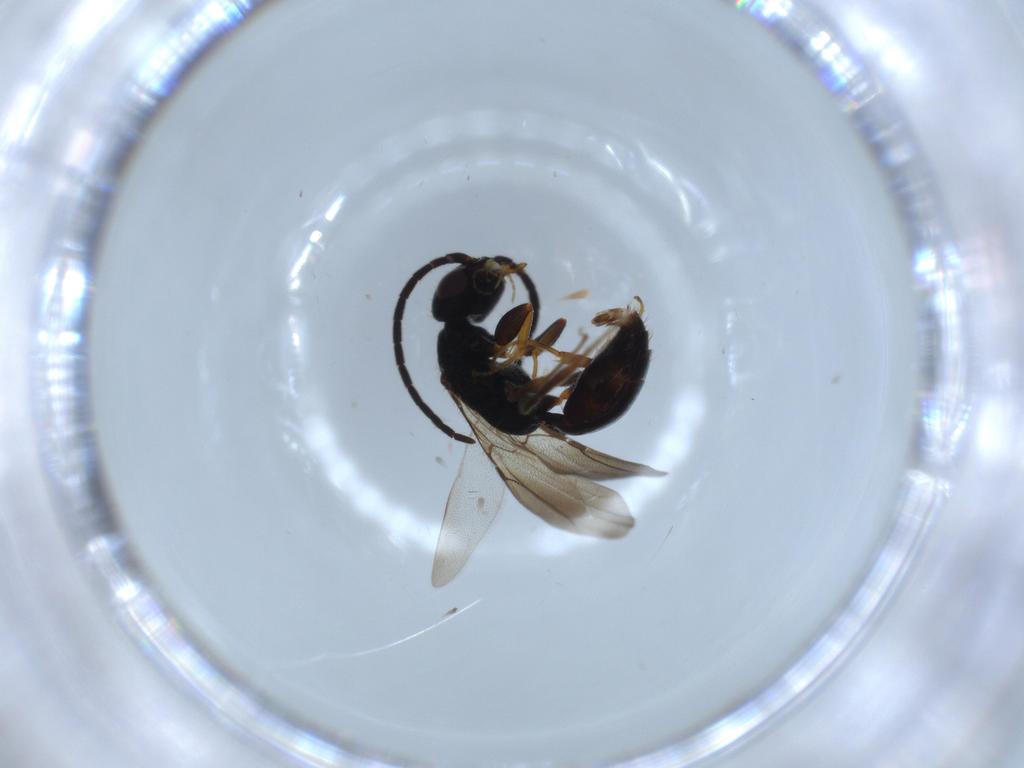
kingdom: Animalia
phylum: Arthropoda
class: Insecta
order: Hymenoptera
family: Bethylidae
